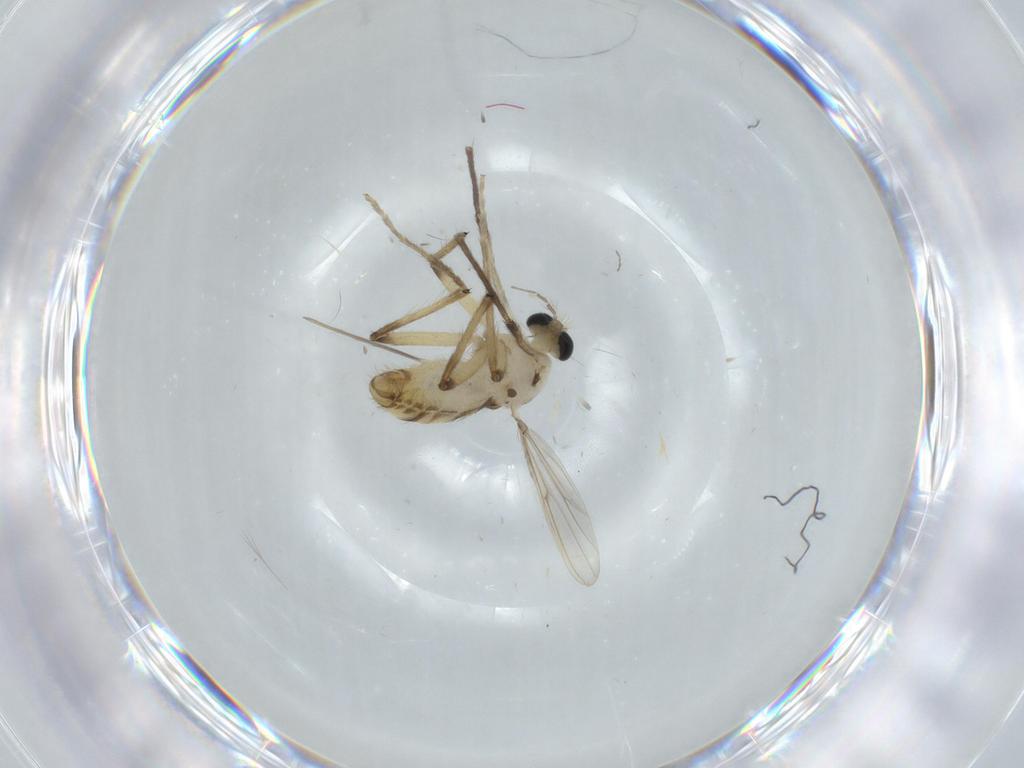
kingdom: Animalia
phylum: Arthropoda
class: Insecta
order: Diptera
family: Chironomidae
